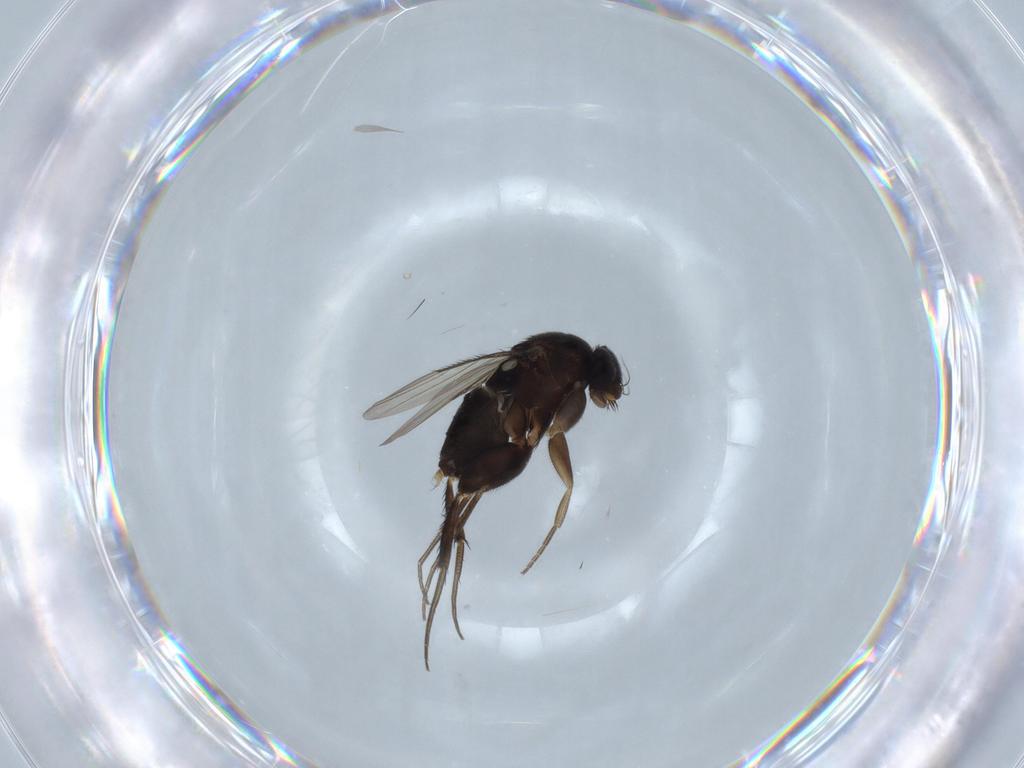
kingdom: Animalia
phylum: Arthropoda
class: Insecta
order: Diptera
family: Phoridae
